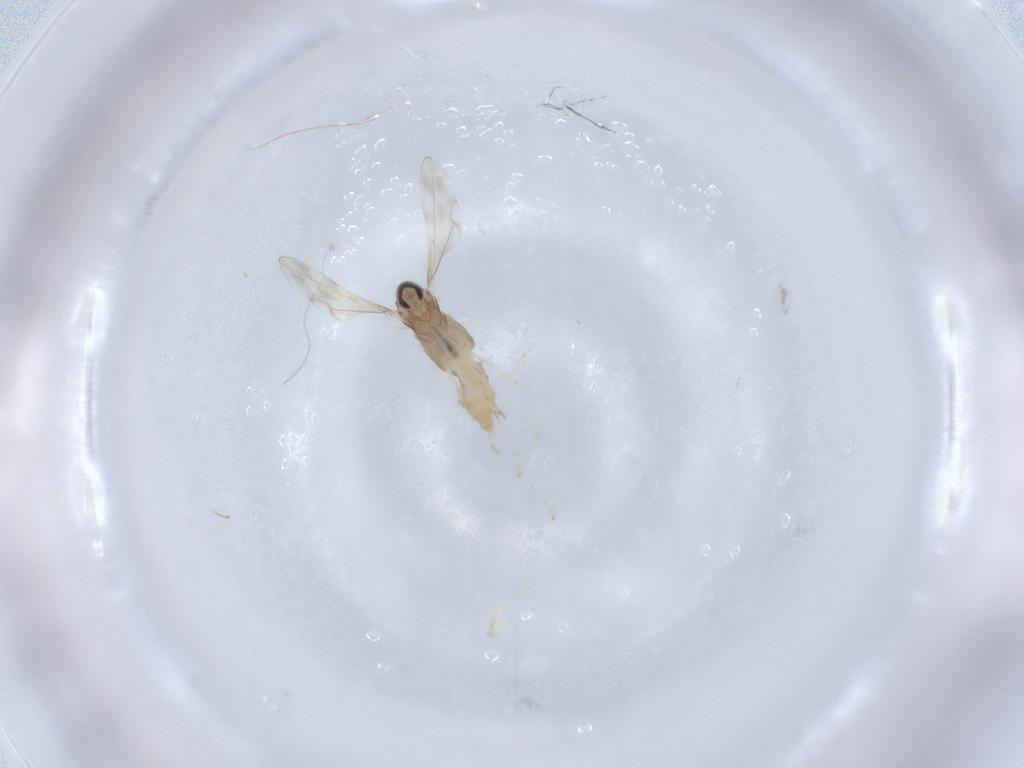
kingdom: Animalia
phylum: Arthropoda
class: Insecta
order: Diptera
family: Cecidomyiidae
